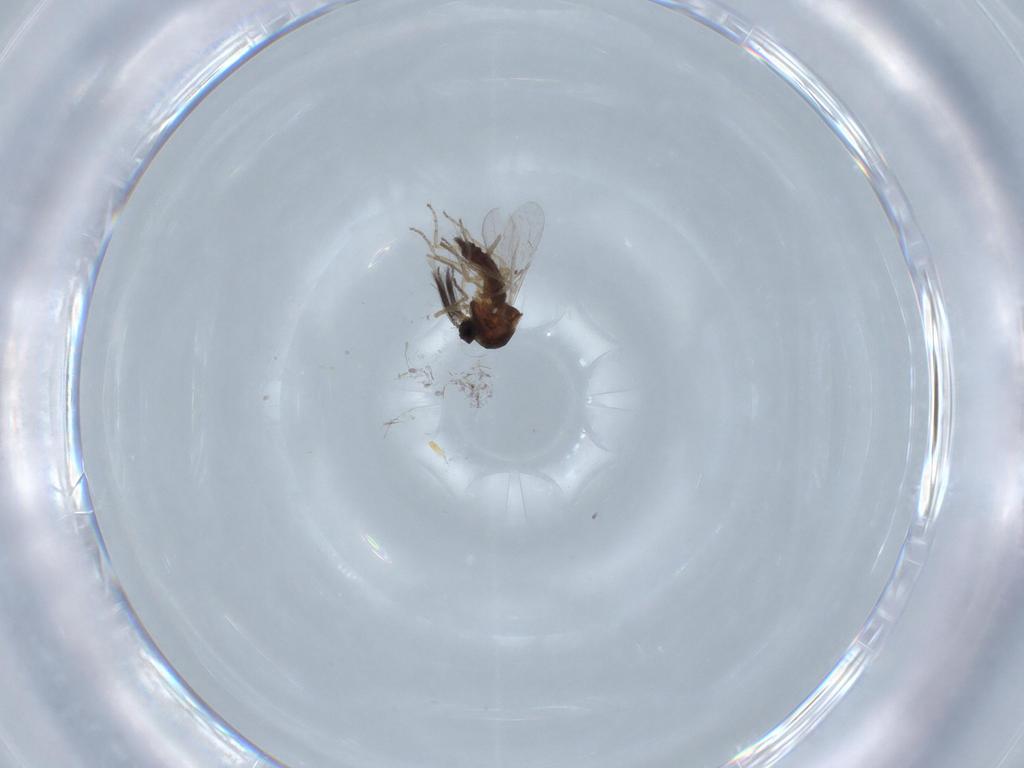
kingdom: Animalia
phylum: Arthropoda
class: Insecta
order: Diptera
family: Ceratopogonidae
